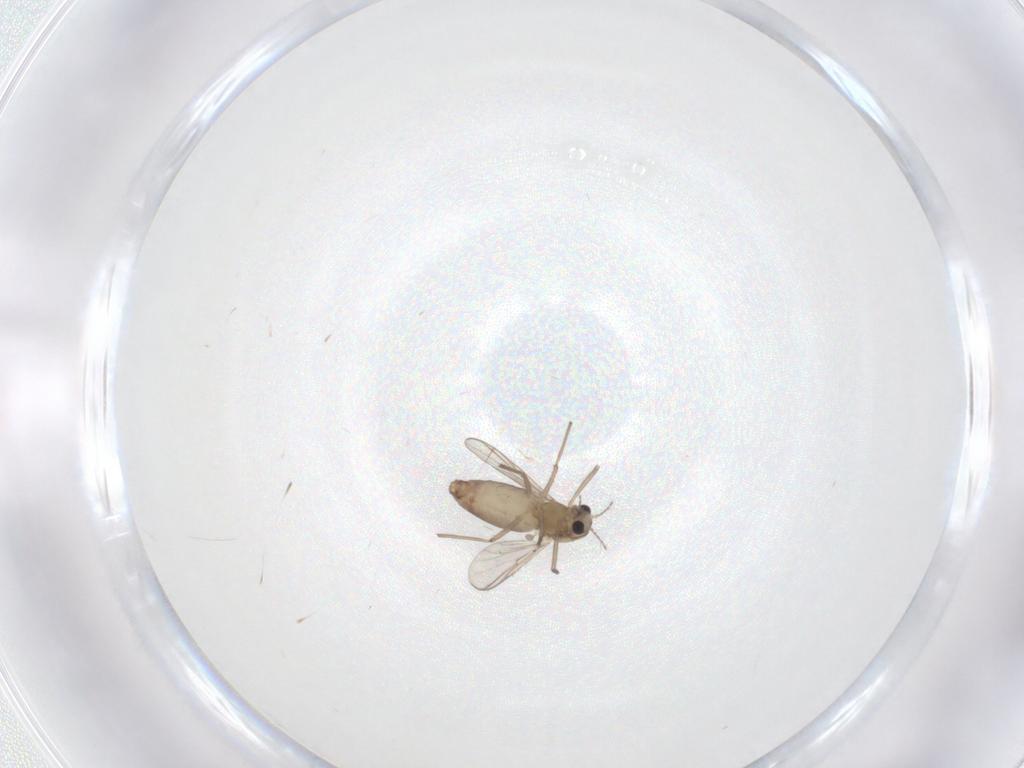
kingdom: Animalia
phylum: Arthropoda
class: Insecta
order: Diptera
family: Chironomidae
